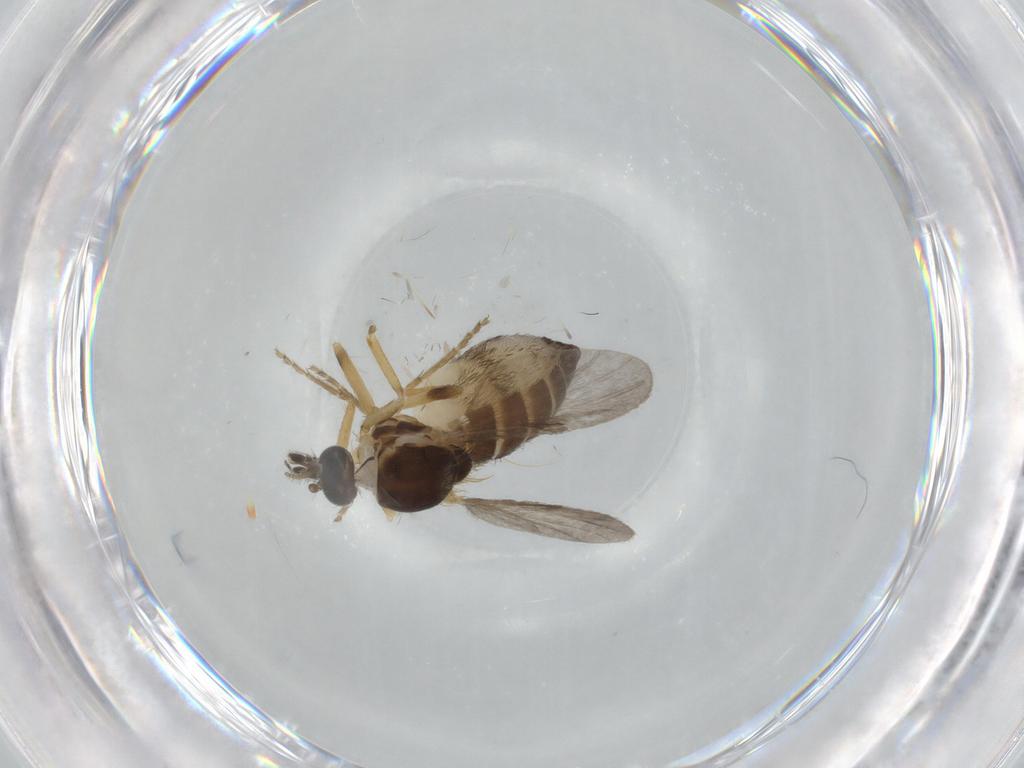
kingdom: Animalia
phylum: Arthropoda
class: Insecta
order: Diptera
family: Ceratopogonidae
